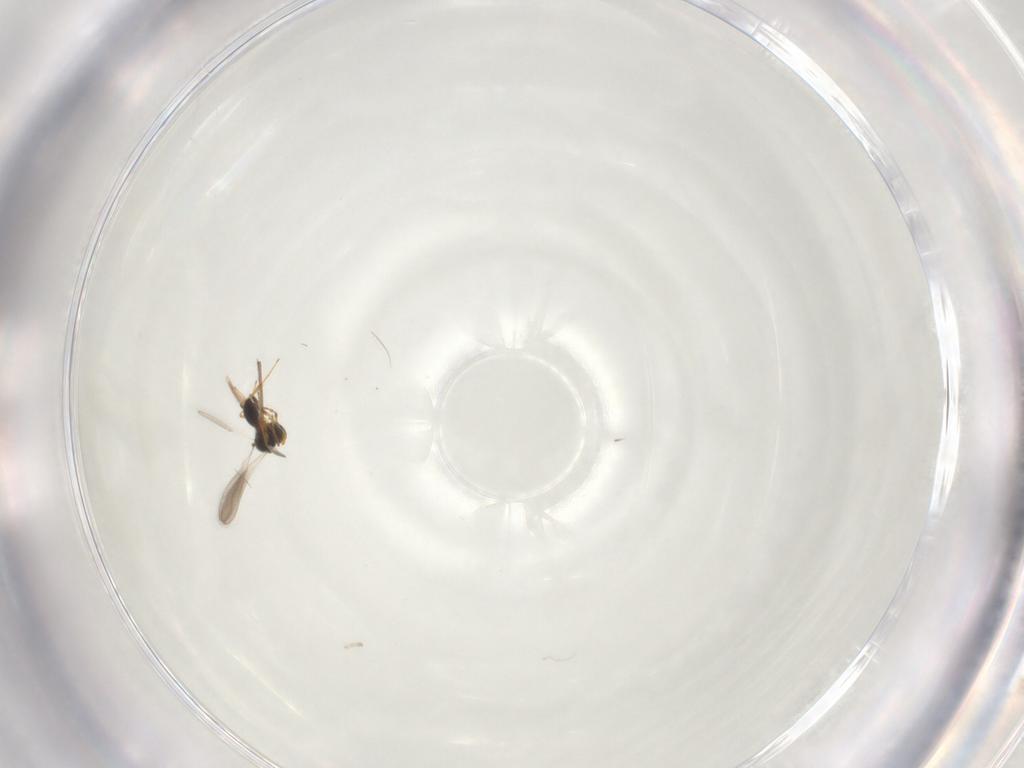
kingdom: Animalia
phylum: Arthropoda
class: Insecta
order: Hymenoptera
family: Platygastridae
